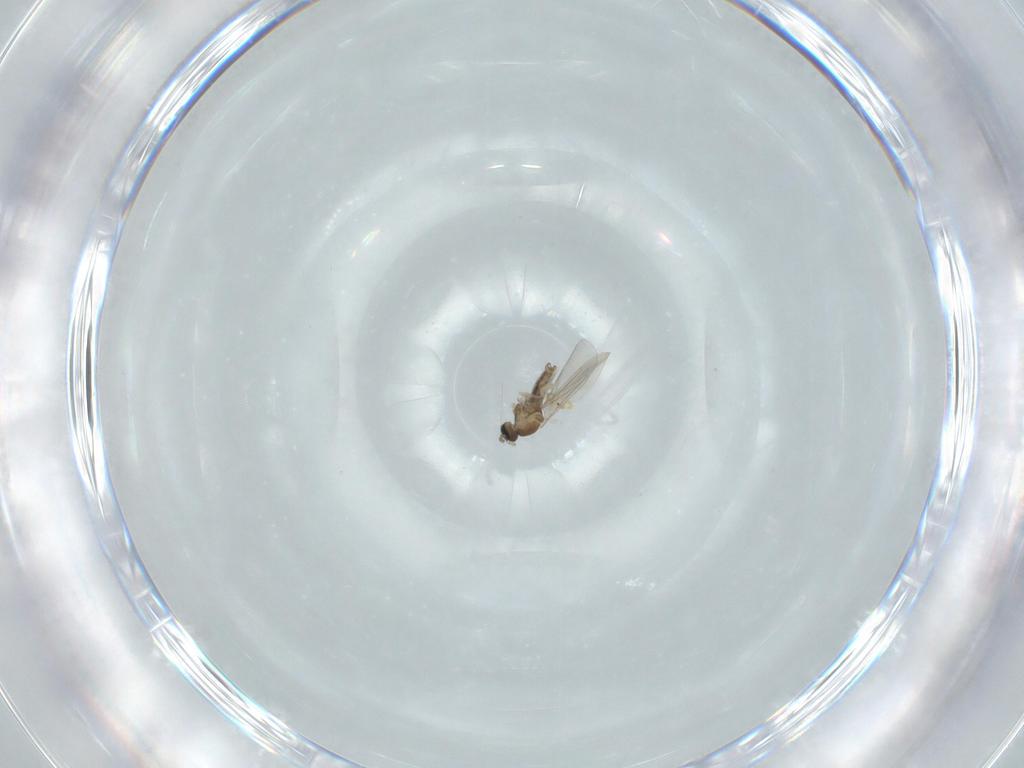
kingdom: Animalia
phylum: Arthropoda
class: Insecta
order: Diptera
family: Cecidomyiidae
